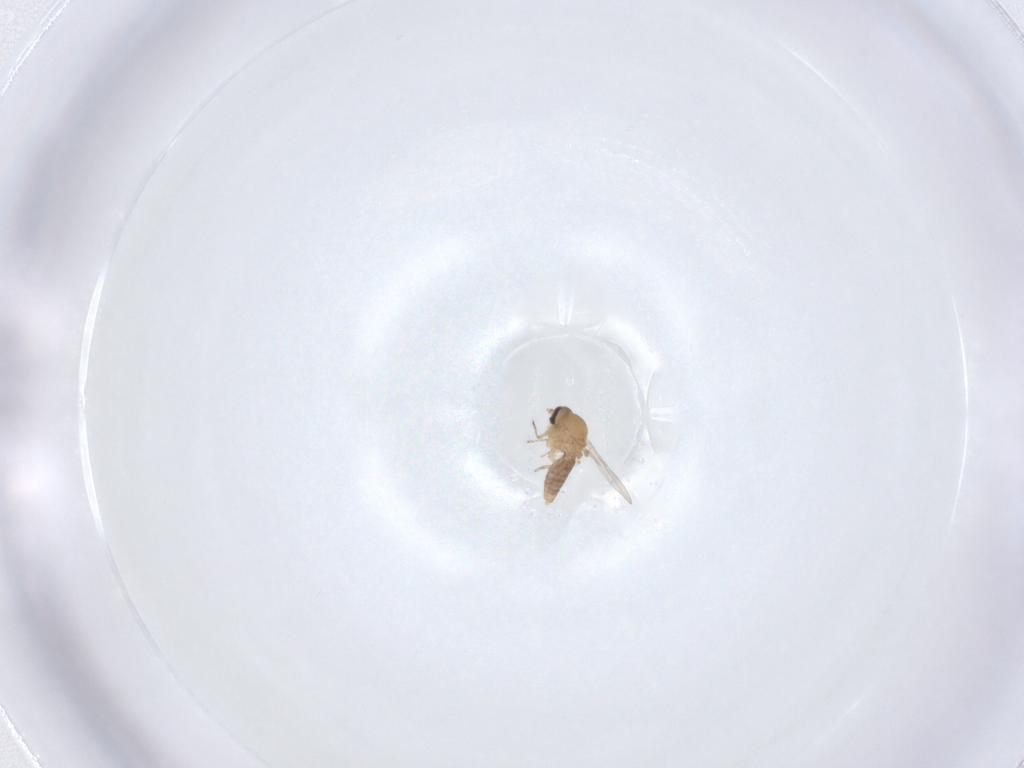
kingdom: Animalia
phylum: Arthropoda
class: Insecta
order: Diptera
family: Ceratopogonidae
